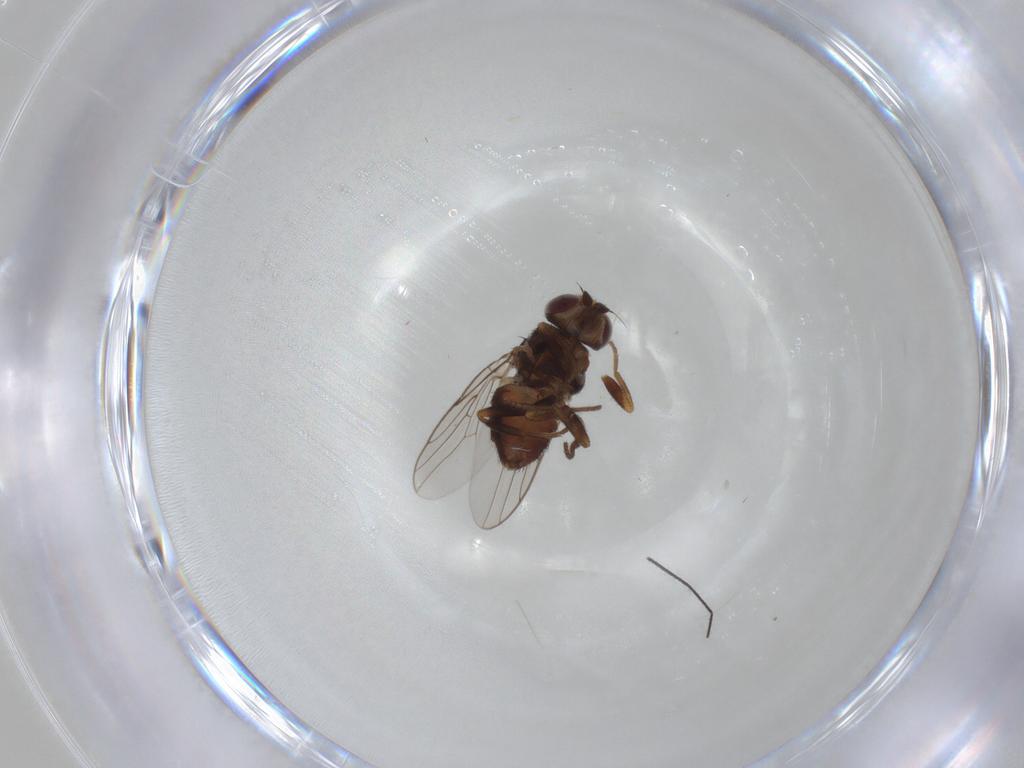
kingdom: Animalia
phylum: Arthropoda
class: Insecta
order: Diptera
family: Chloropidae
